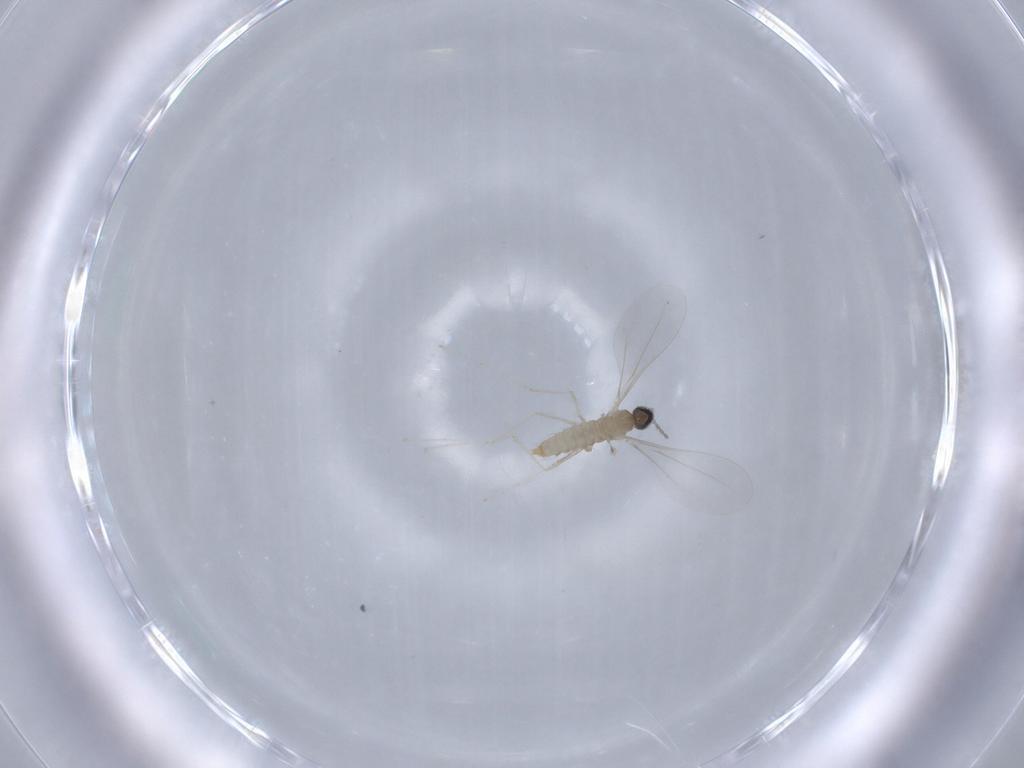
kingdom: Animalia
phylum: Arthropoda
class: Insecta
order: Diptera
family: Cecidomyiidae
